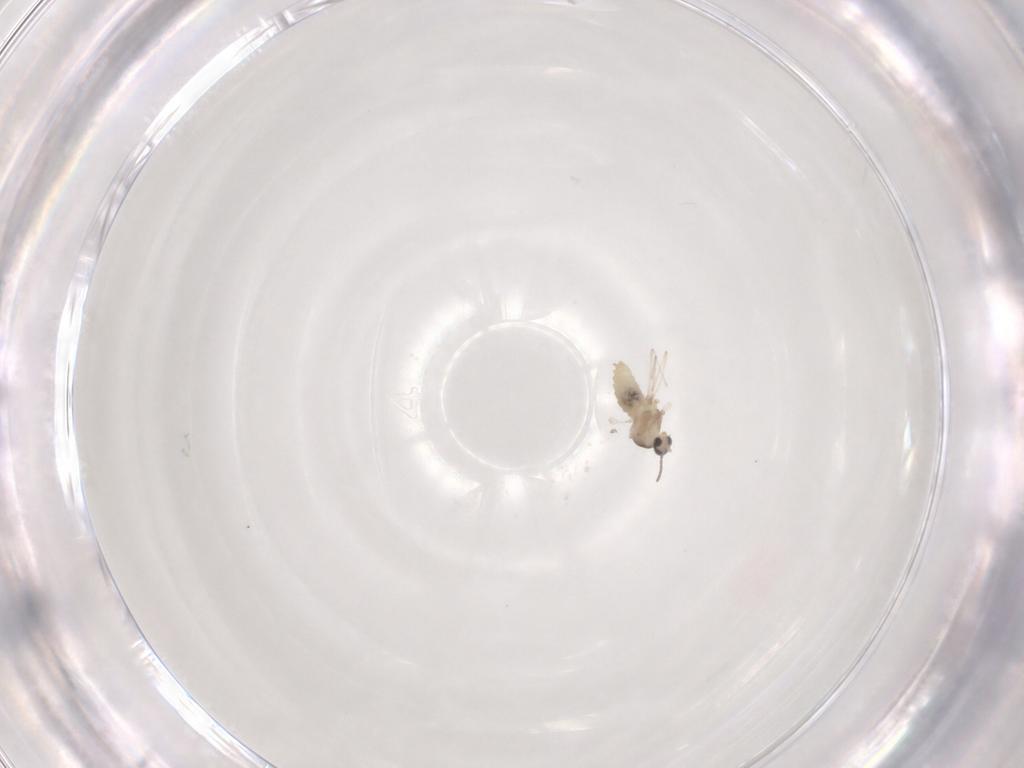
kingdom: Animalia
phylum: Arthropoda
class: Insecta
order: Diptera
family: Cecidomyiidae
